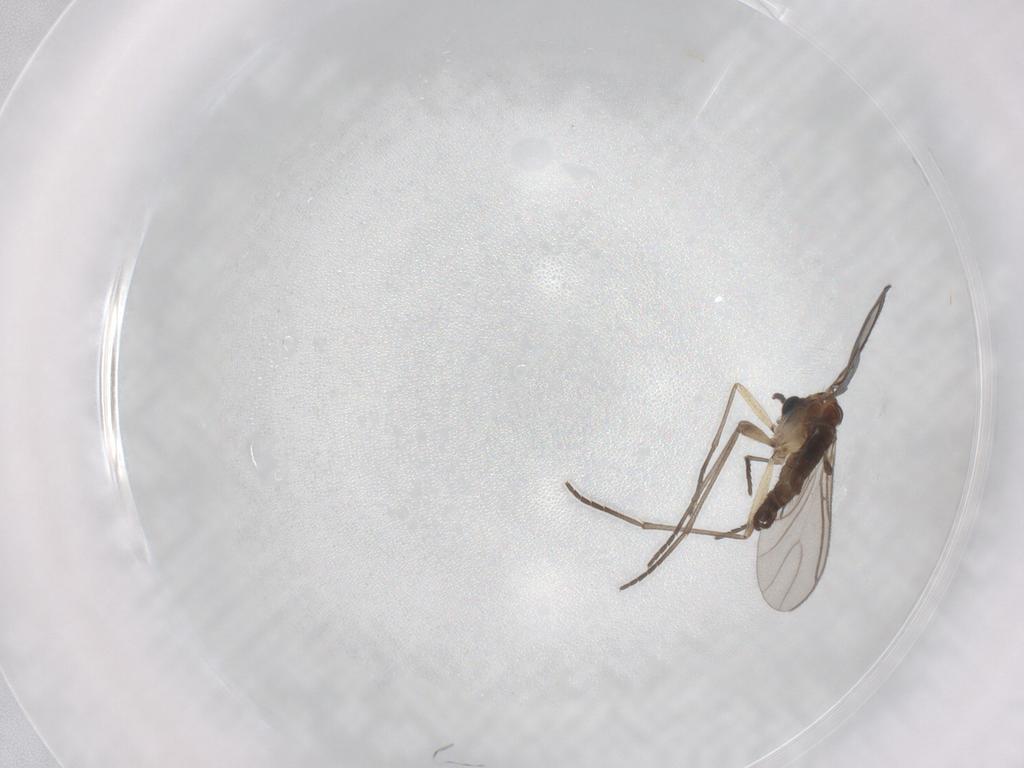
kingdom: Animalia
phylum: Arthropoda
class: Insecta
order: Diptera
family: Sciaridae
